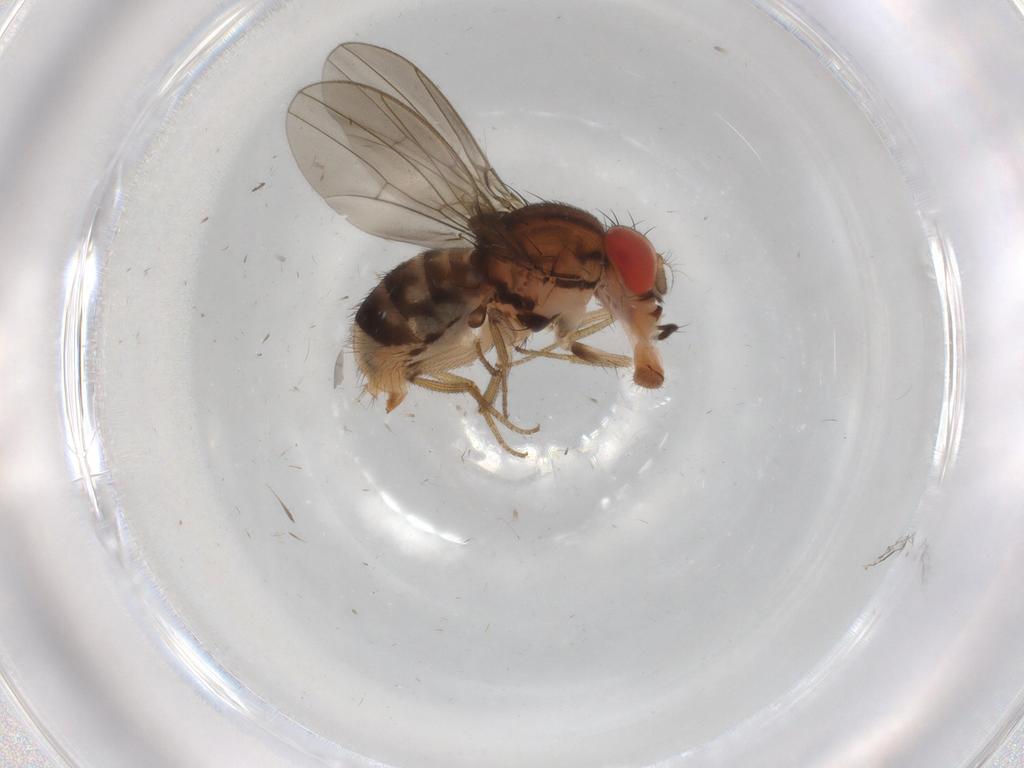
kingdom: Animalia
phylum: Arthropoda
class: Insecta
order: Diptera
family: Drosophilidae
